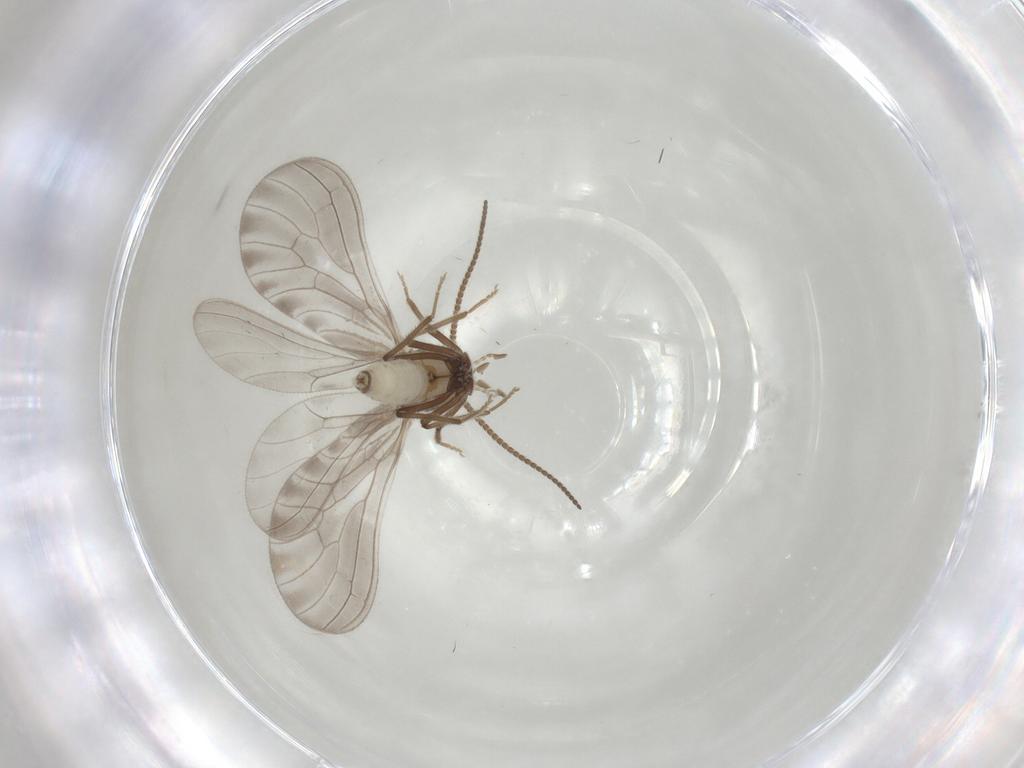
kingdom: Animalia
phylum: Arthropoda
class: Insecta
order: Neuroptera
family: Coniopterygidae
